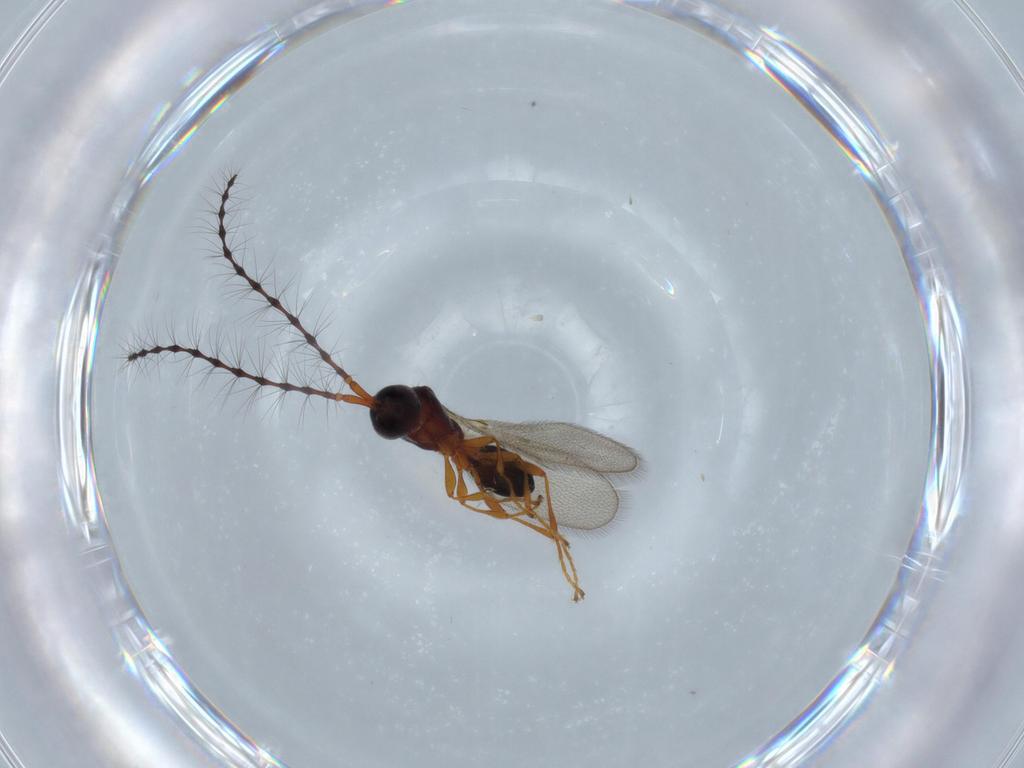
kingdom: Animalia
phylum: Arthropoda
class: Insecta
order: Hymenoptera
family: Diapriidae
